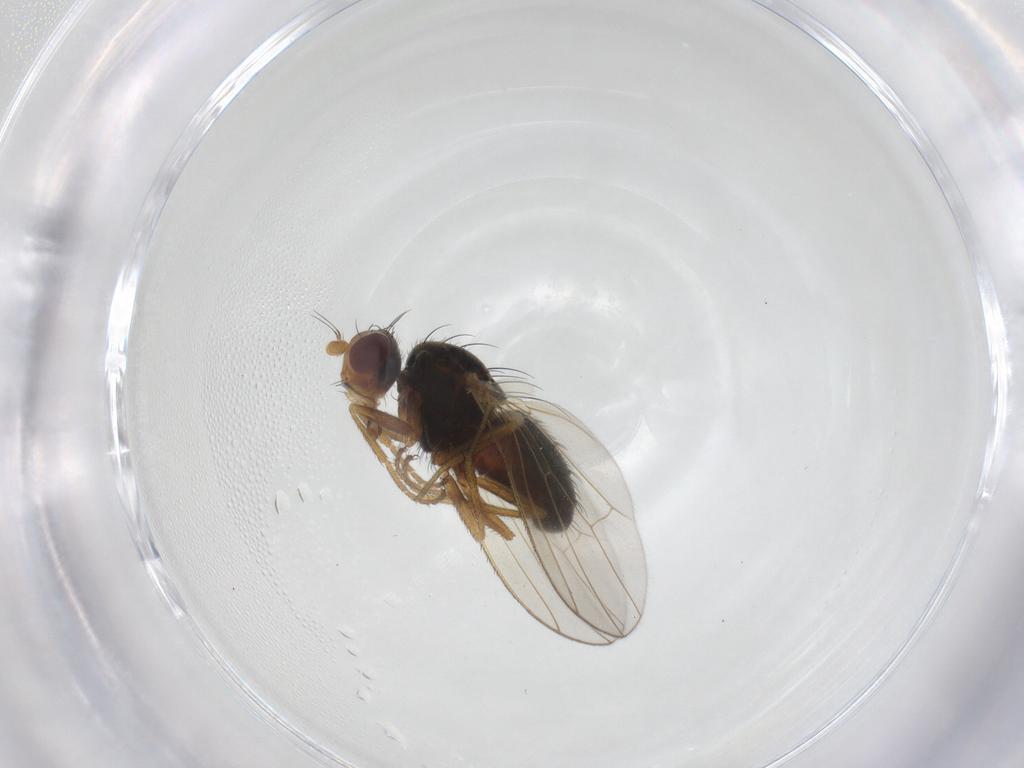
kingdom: Animalia
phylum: Arthropoda
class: Insecta
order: Diptera
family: Heleomyzidae
